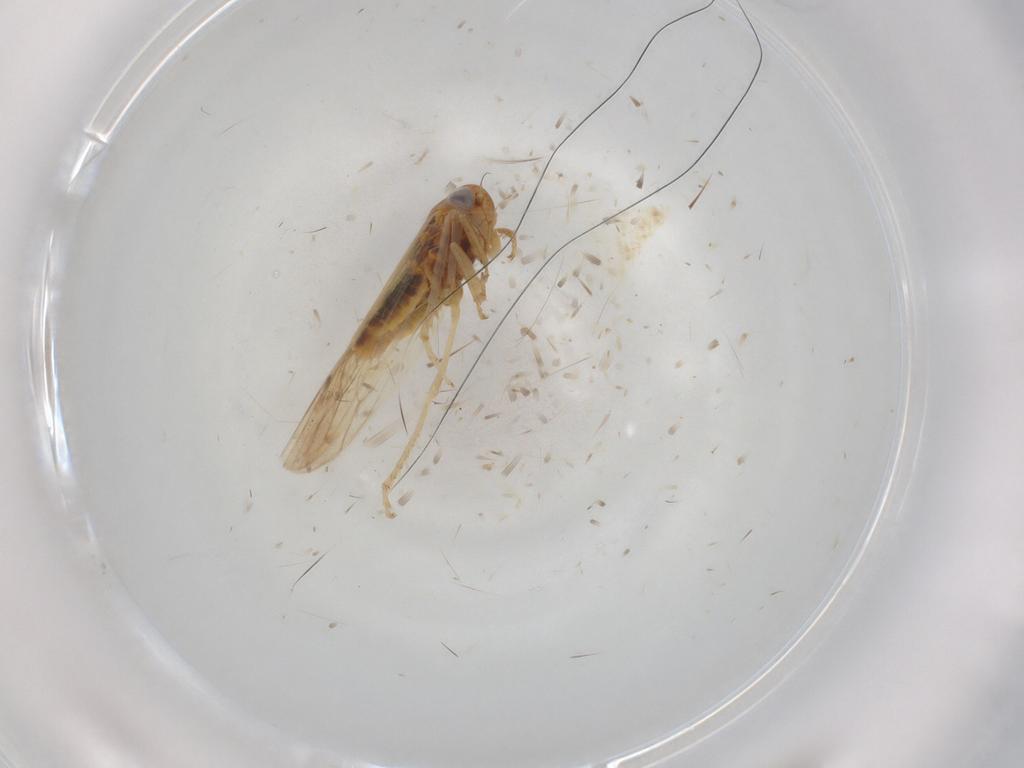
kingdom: Animalia
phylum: Arthropoda
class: Insecta
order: Hemiptera
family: Cicadellidae
